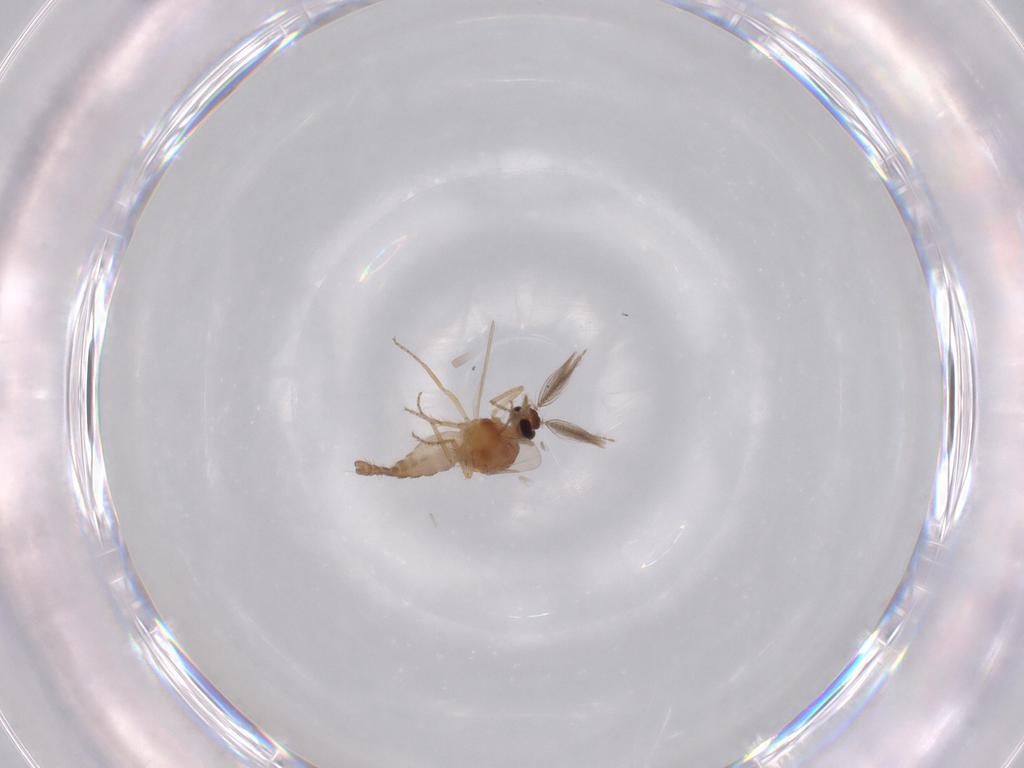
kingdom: Animalia
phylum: Arthropoda
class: Insecta
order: Diptera
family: Ceratopogonidae
